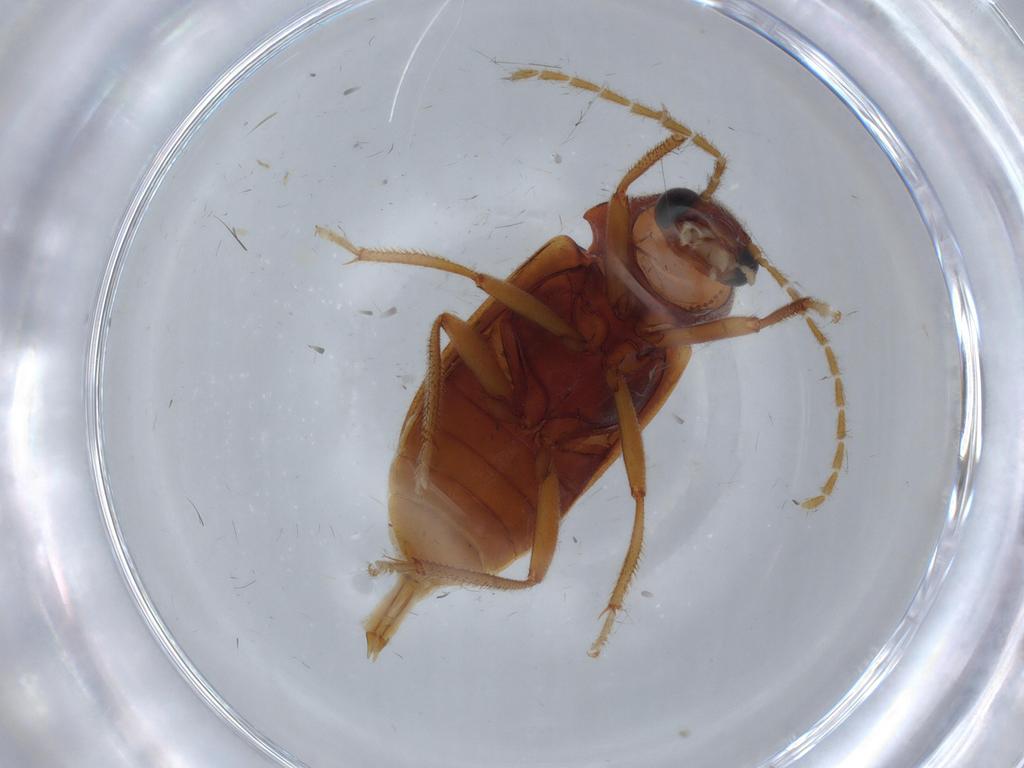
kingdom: Animalia
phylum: Arthropoda
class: Insecta
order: Coleoptera
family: Ptilodactylidae
